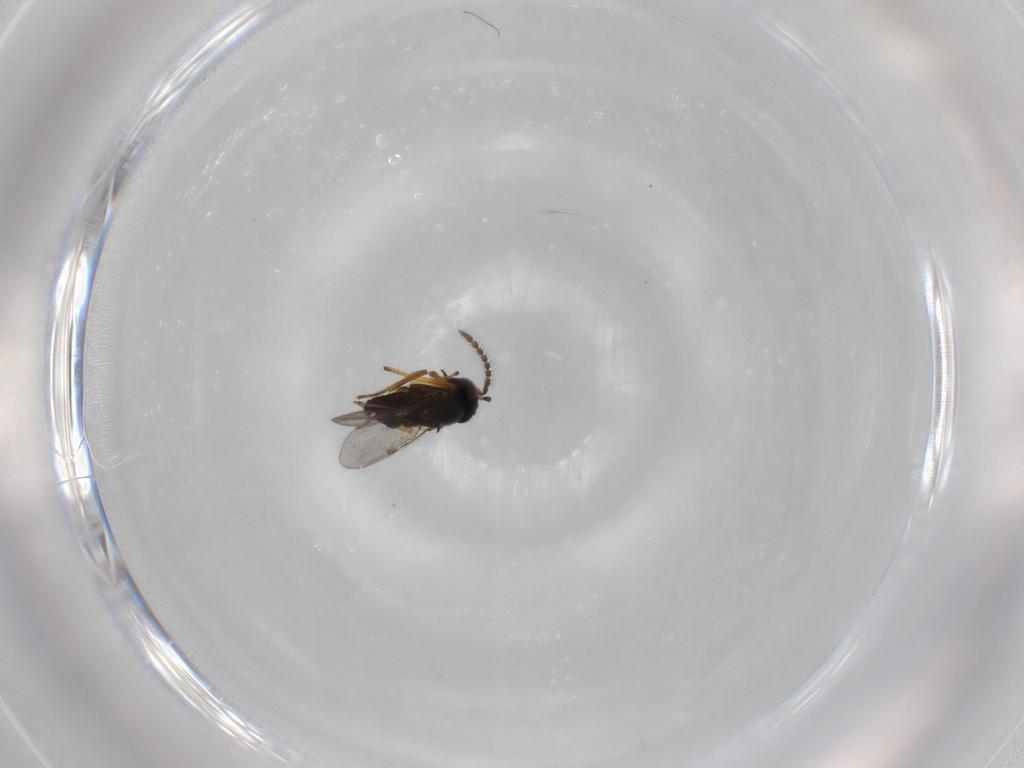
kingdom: Animalia
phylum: Arthropoda
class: Insecta
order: Hymenoptera
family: Encyrtidae
